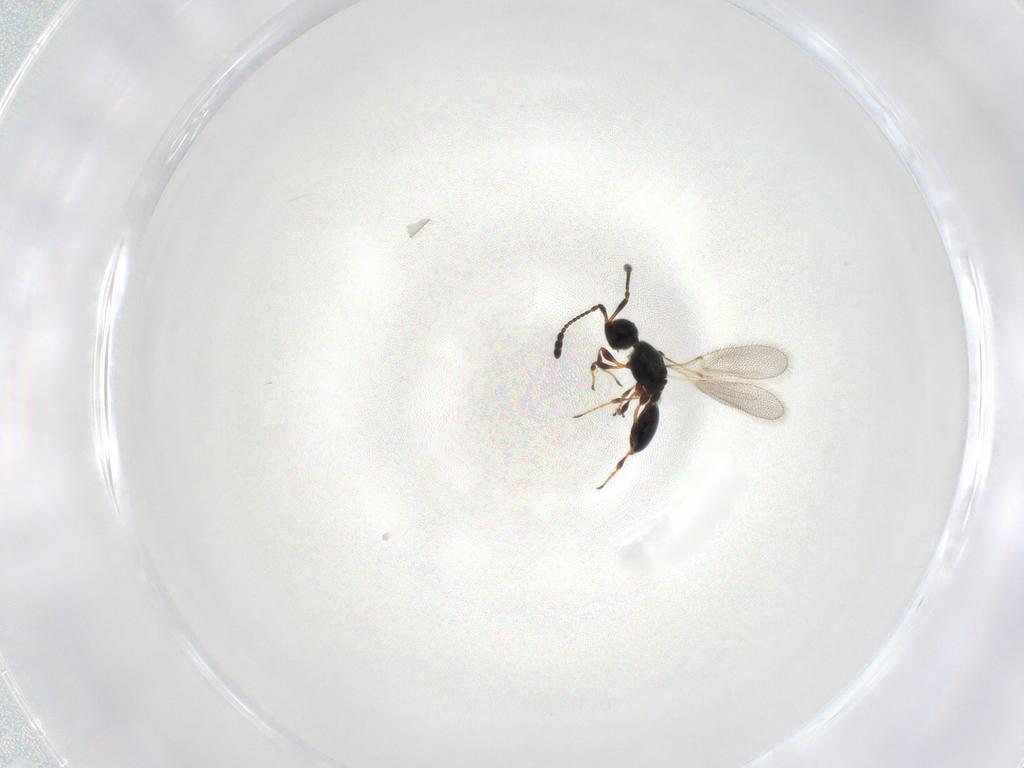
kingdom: Animalia
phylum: Arthropoda
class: Insecta
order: Hymenoptera
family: Diapriidae
